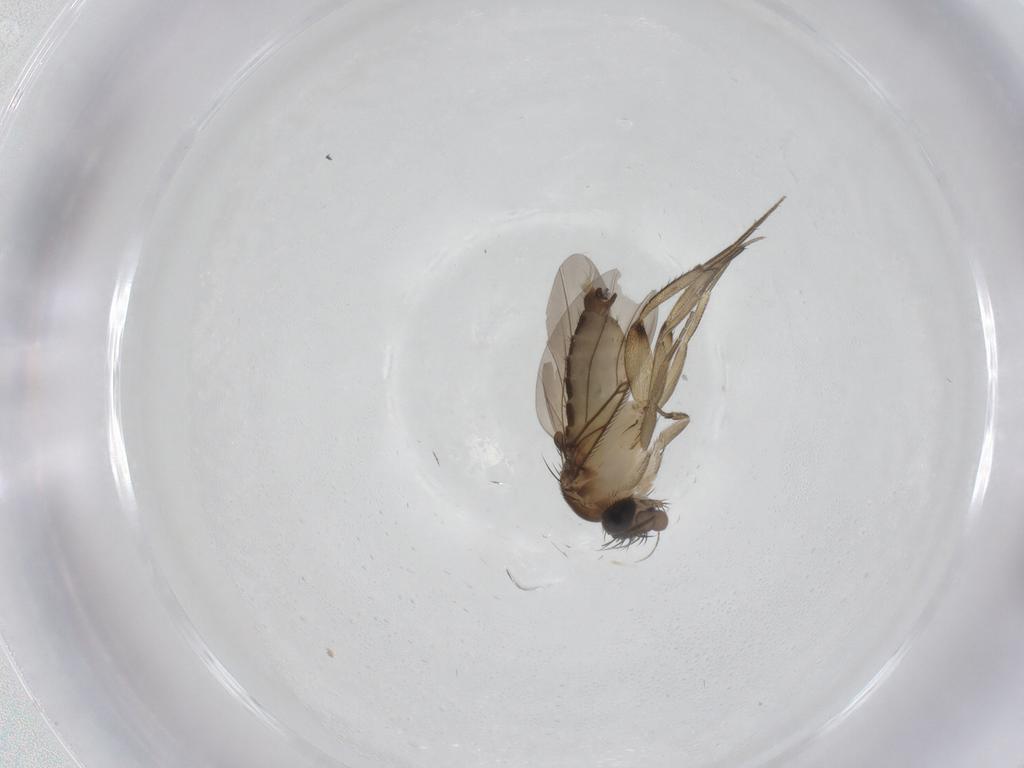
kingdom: Animalia
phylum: Arthropoda
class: Insecta
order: Diptera
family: Phoridae
